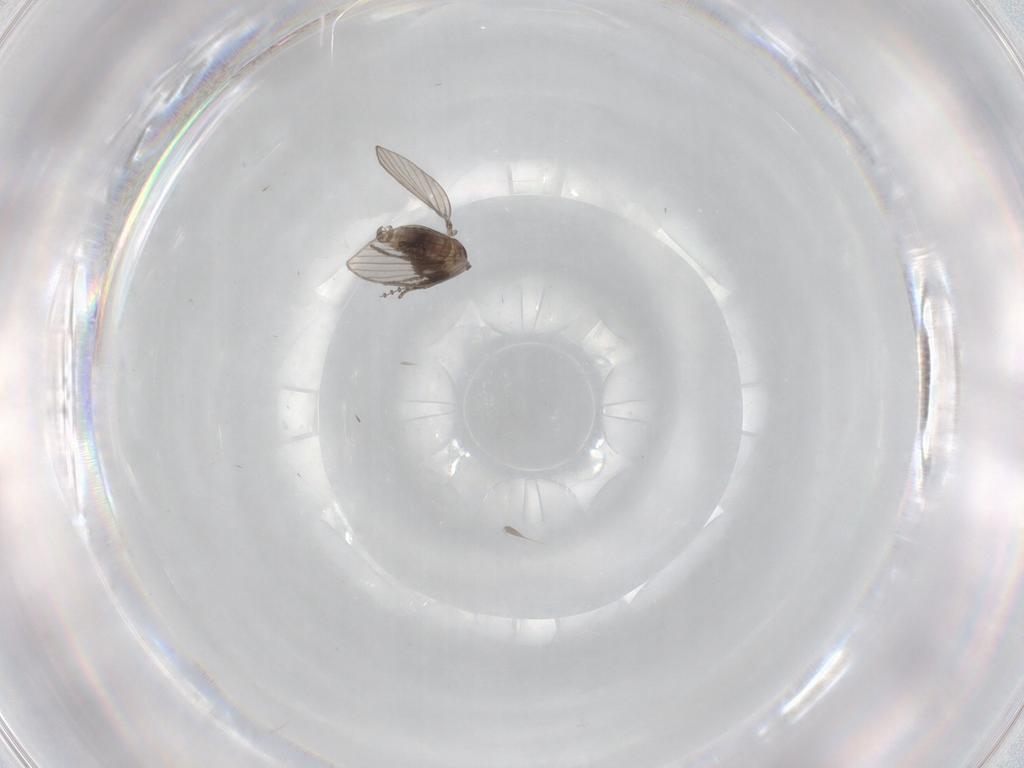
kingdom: Animalia
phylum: Arthropoda
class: Insecta
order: Diptera
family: Psychodidae
